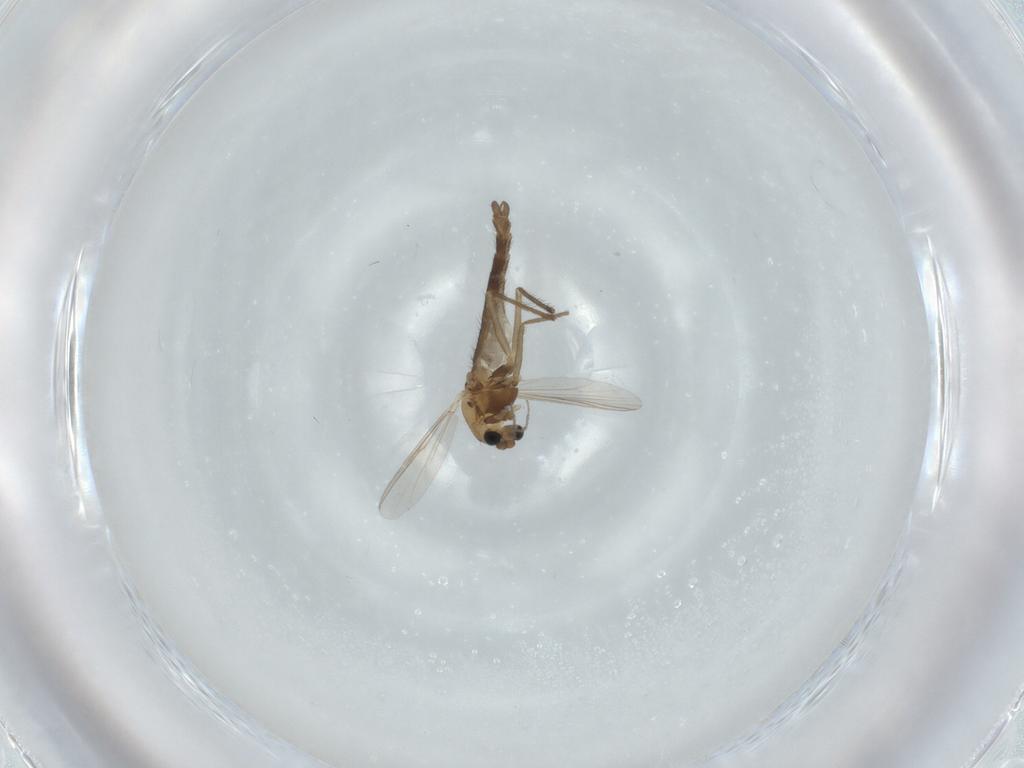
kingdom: Animalia
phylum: Arthropoda
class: Insecta
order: Diptera
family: Chironomidae
